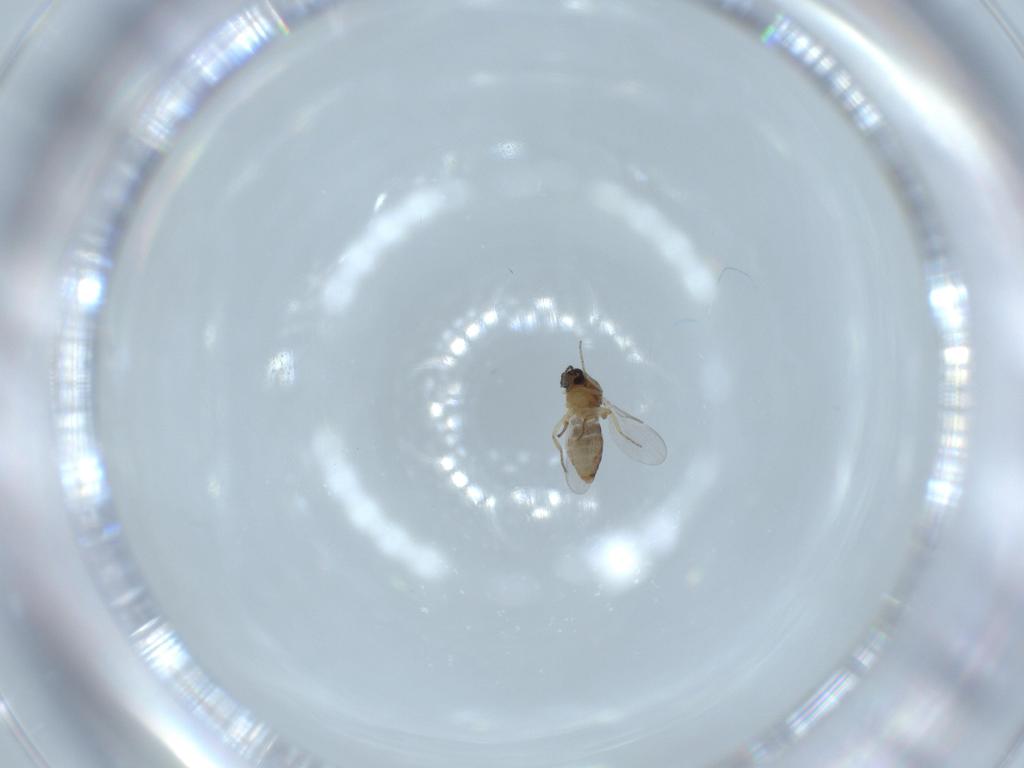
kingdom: Animalia
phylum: Arthropoda
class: Insecta
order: Diptera
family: Ceratopogonidae
